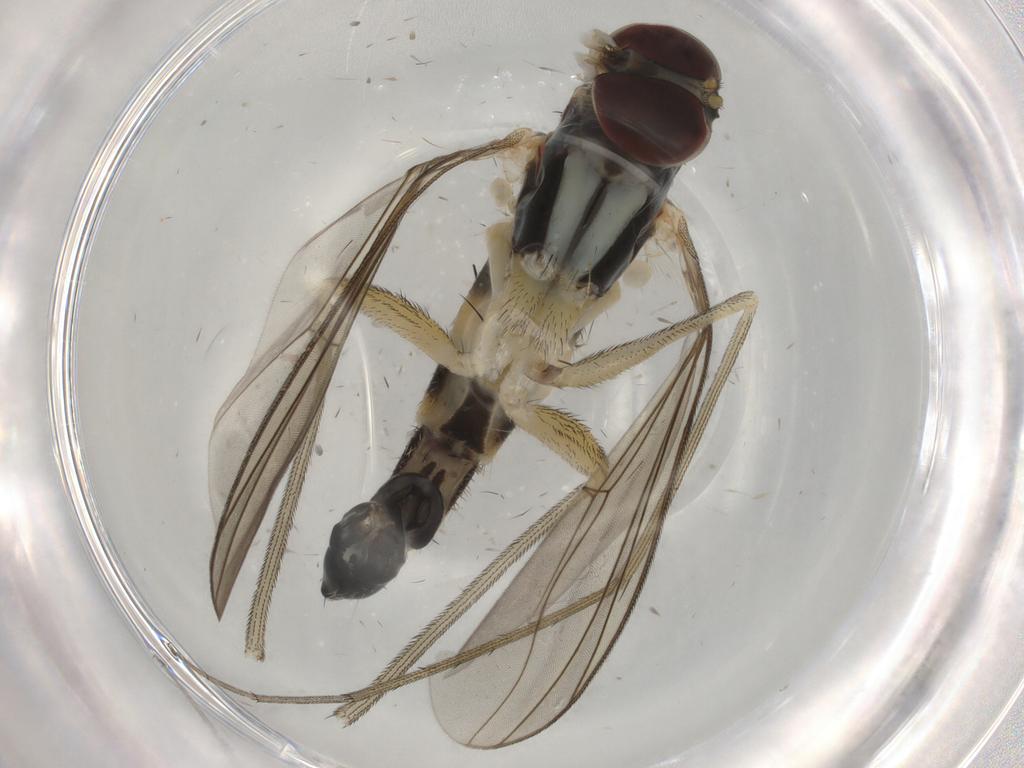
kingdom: Animalia
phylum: Arthropoda
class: Insecta
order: Diptera
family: Dolichopodidae
